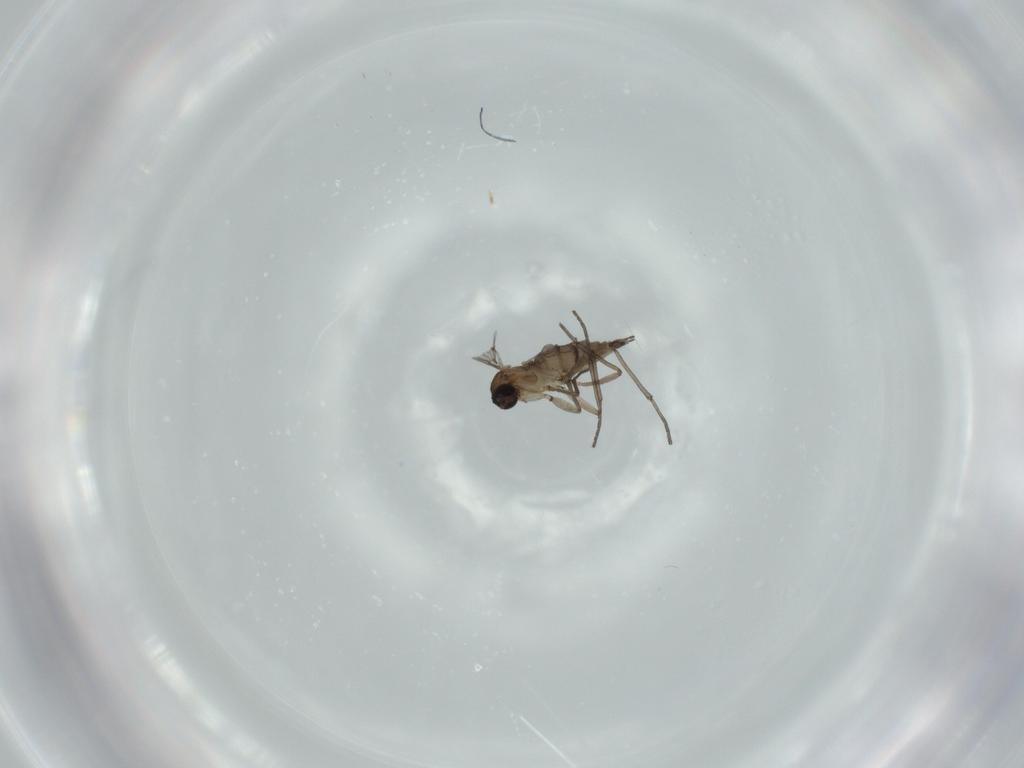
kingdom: Animalia
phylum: Arthropoda
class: Insecta
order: Diptera
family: Sciaridae
